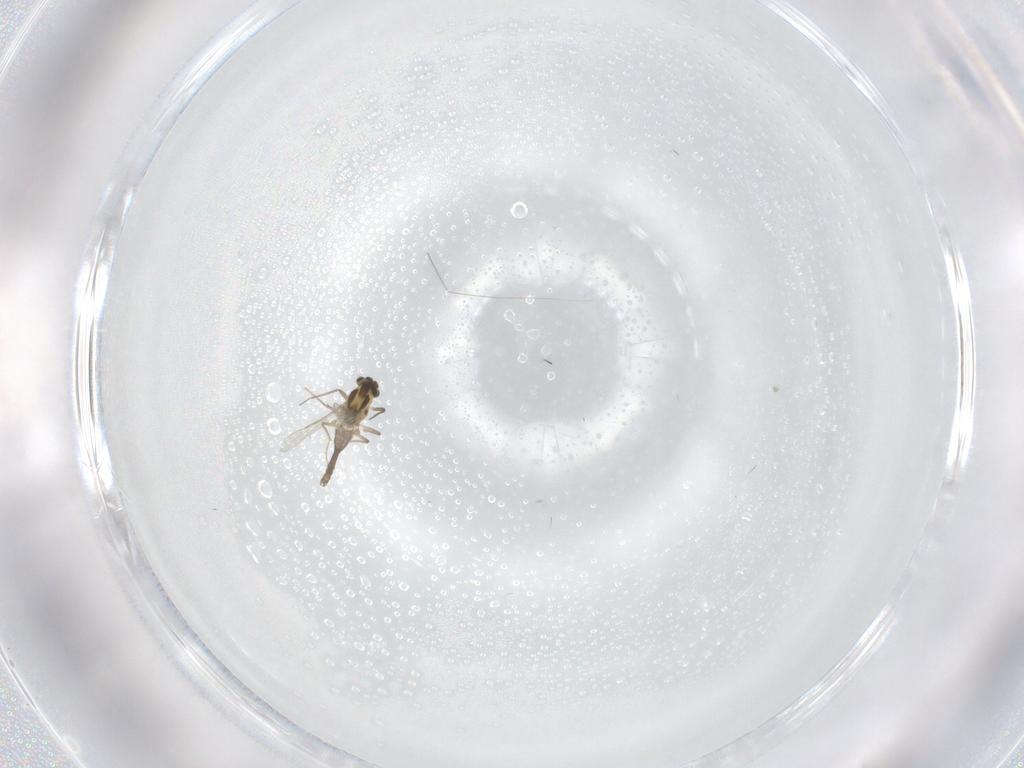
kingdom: Animalia
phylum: Arthropoda
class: Insecta
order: Diptera
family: Chironomidae
